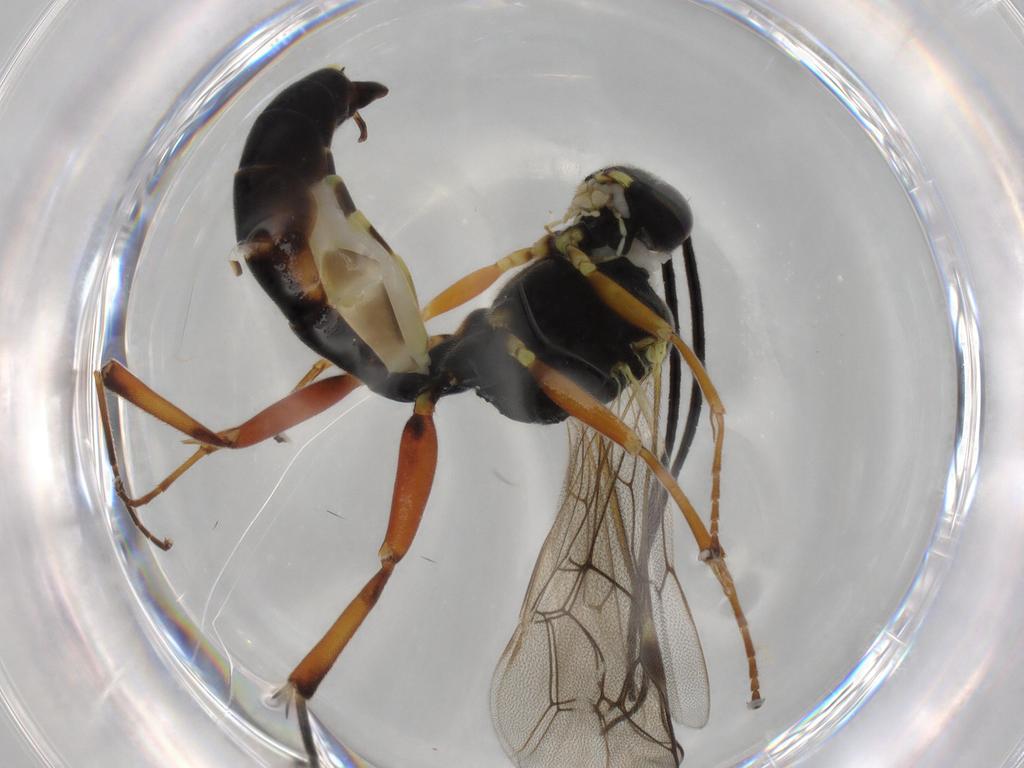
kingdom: Animalia
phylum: Arthropoda
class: Insecta
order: Hymenoptera
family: Ichneumonidae
